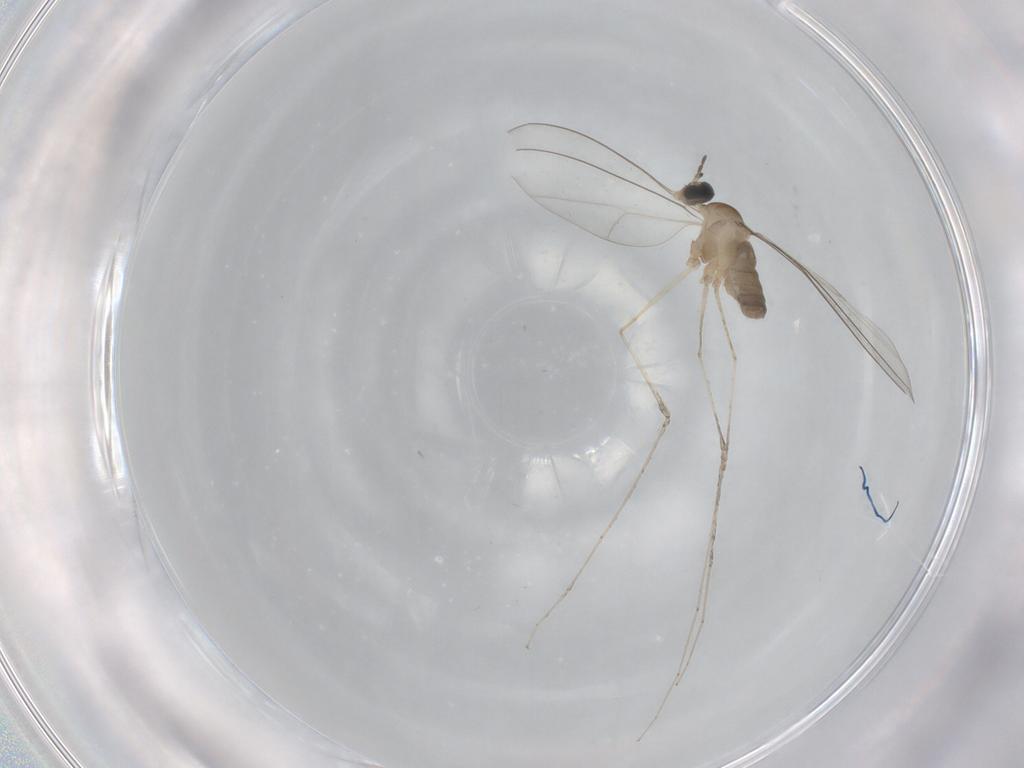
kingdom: Animalia
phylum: Arthropoda
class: Insecta
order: Diptera
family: Cecidomyiidae
